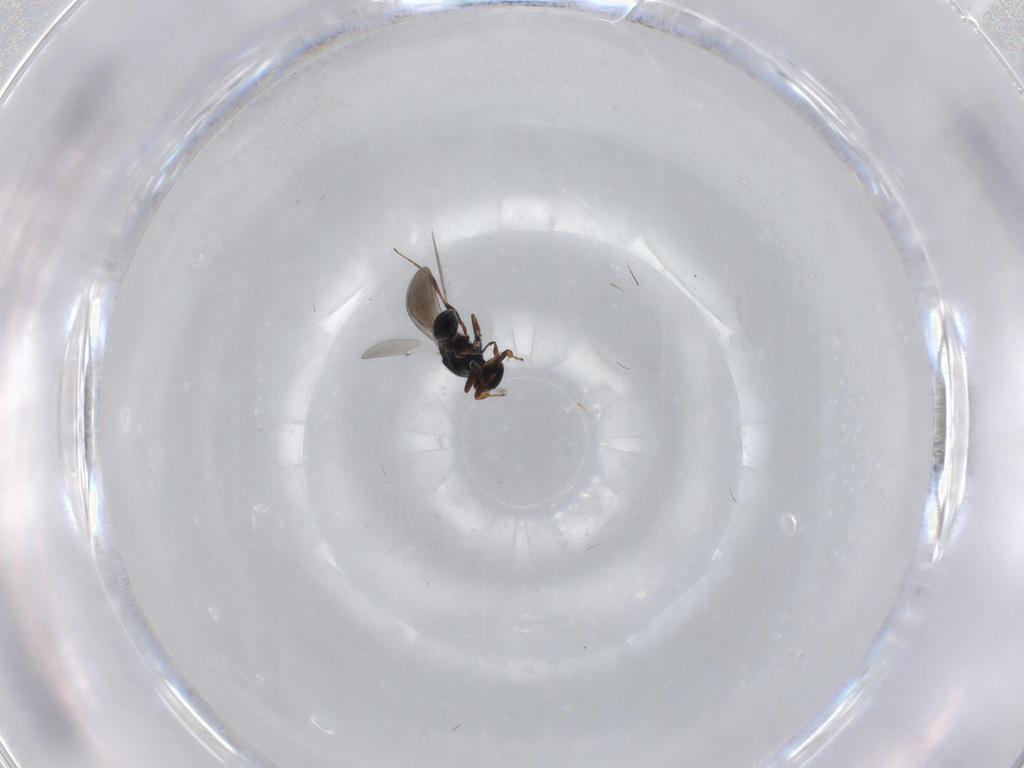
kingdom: Animalia
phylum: Arthropoda
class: Insecta
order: Hymenoptera
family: Platygastridae
